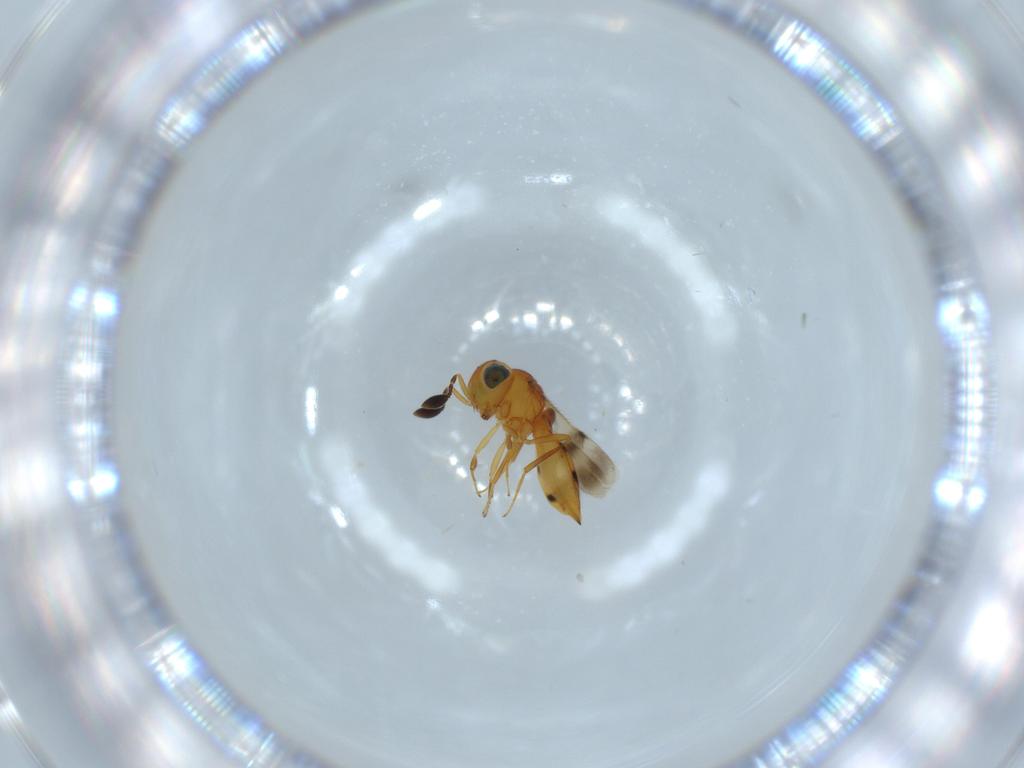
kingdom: Animalia
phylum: Arthropoda
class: Insecta
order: Hymenoptera
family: Scelionidae
